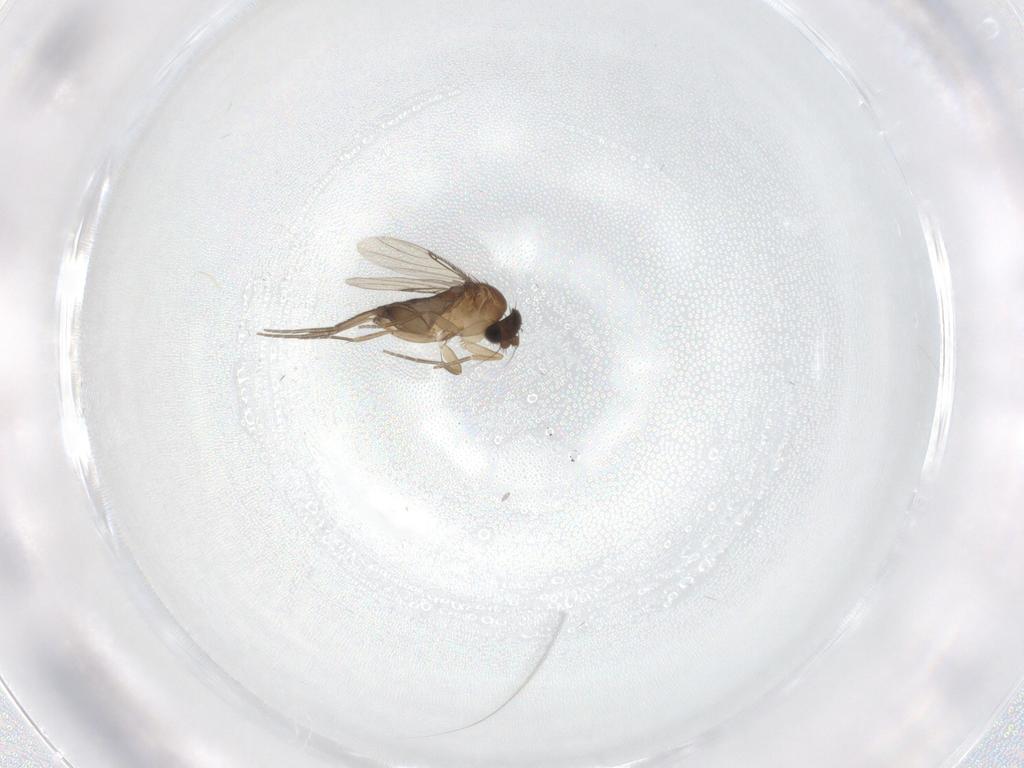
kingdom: Animalia
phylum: Arthropoda
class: Insecta
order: Diptera
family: Phoridae
